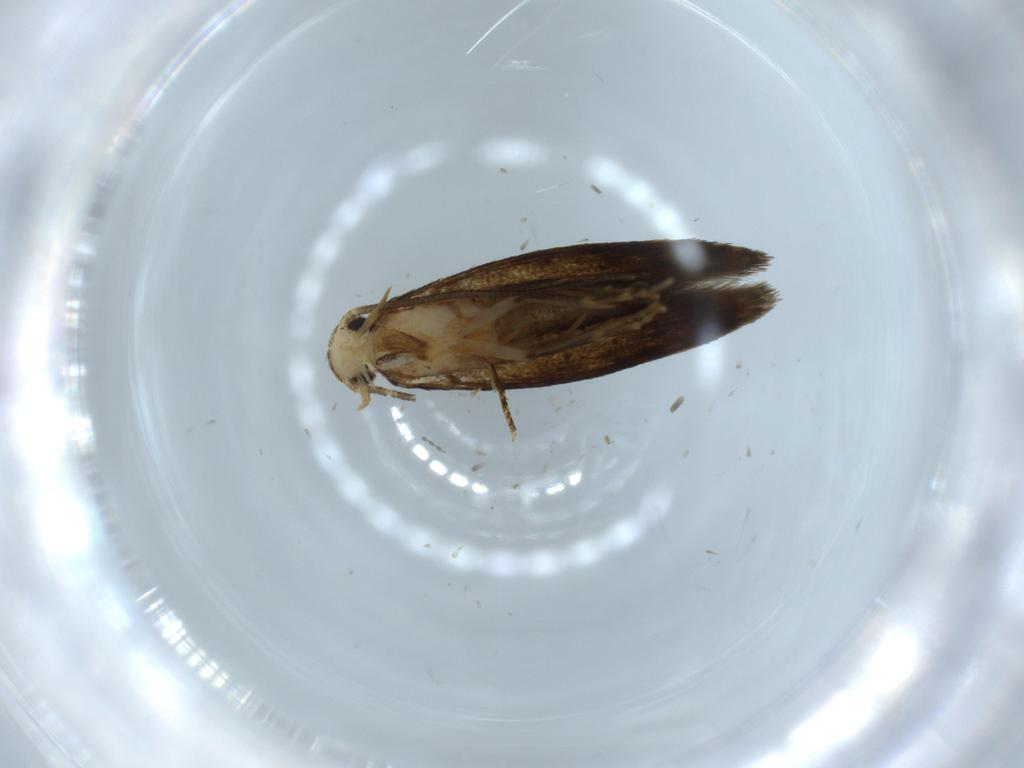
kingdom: Animalia
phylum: Arthropoda
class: Insecta
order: Lepidoptera
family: Tineidae
